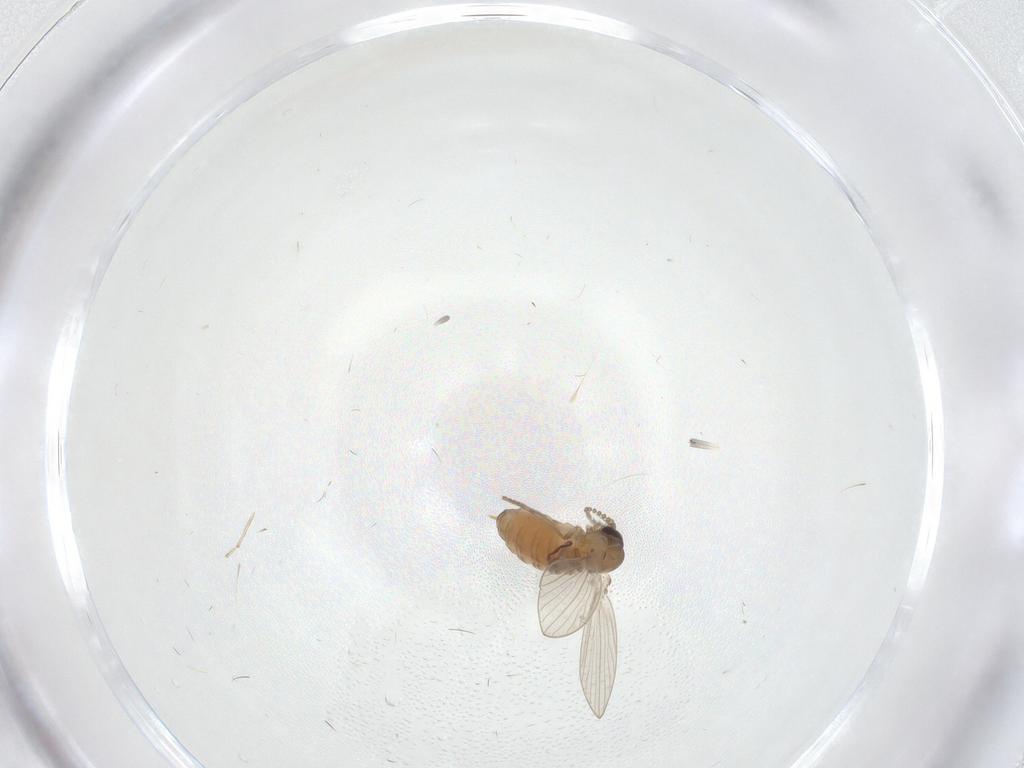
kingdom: Animalia
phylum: Arthropoda
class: Insecta
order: Diptera
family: Psychodidae
